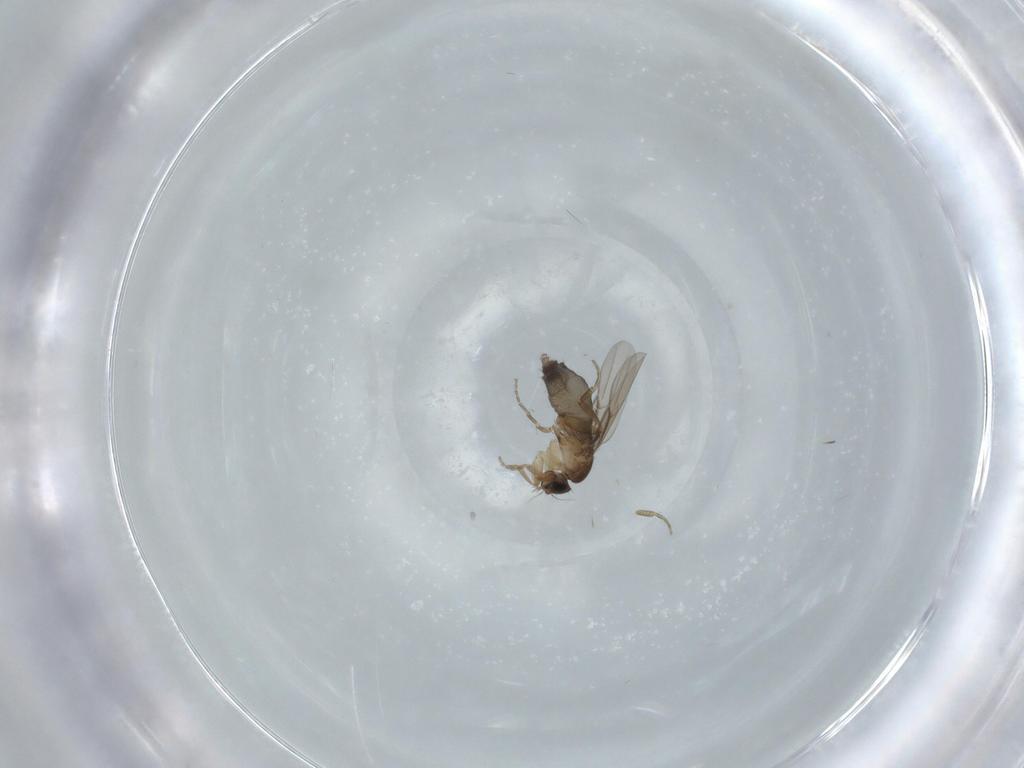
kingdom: Animalia
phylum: Arthropoda
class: Insecta
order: Diptera
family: Phoridae
